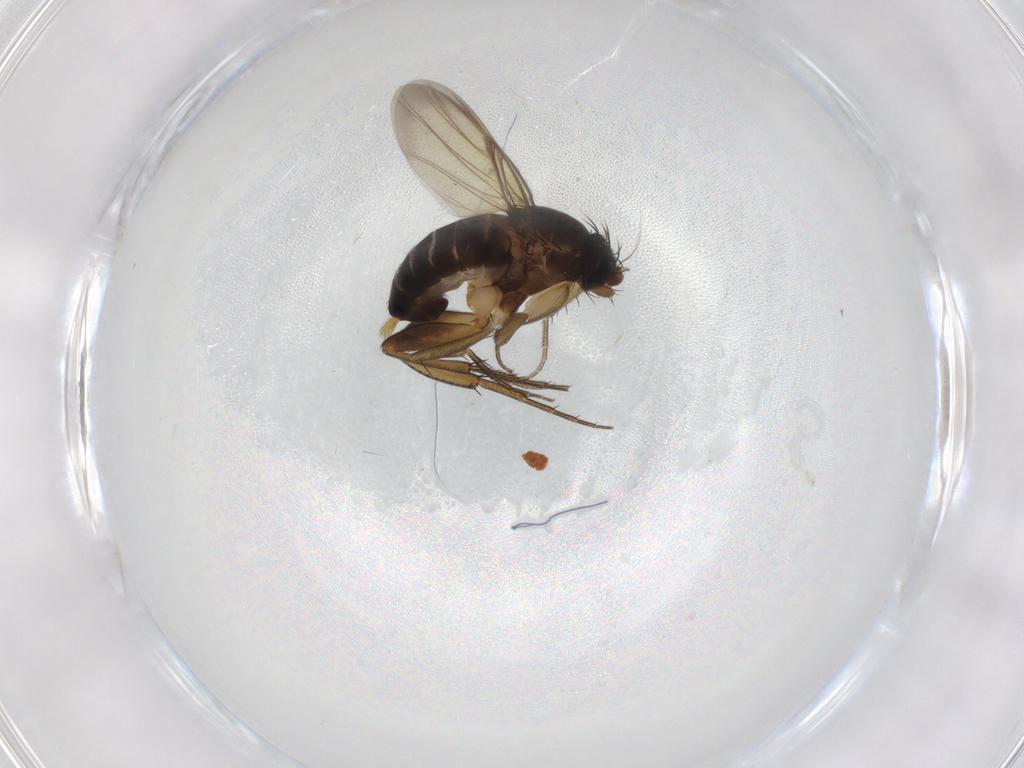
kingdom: Animalia
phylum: Arthropoda
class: Insecta
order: Diptera
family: Phoridae
